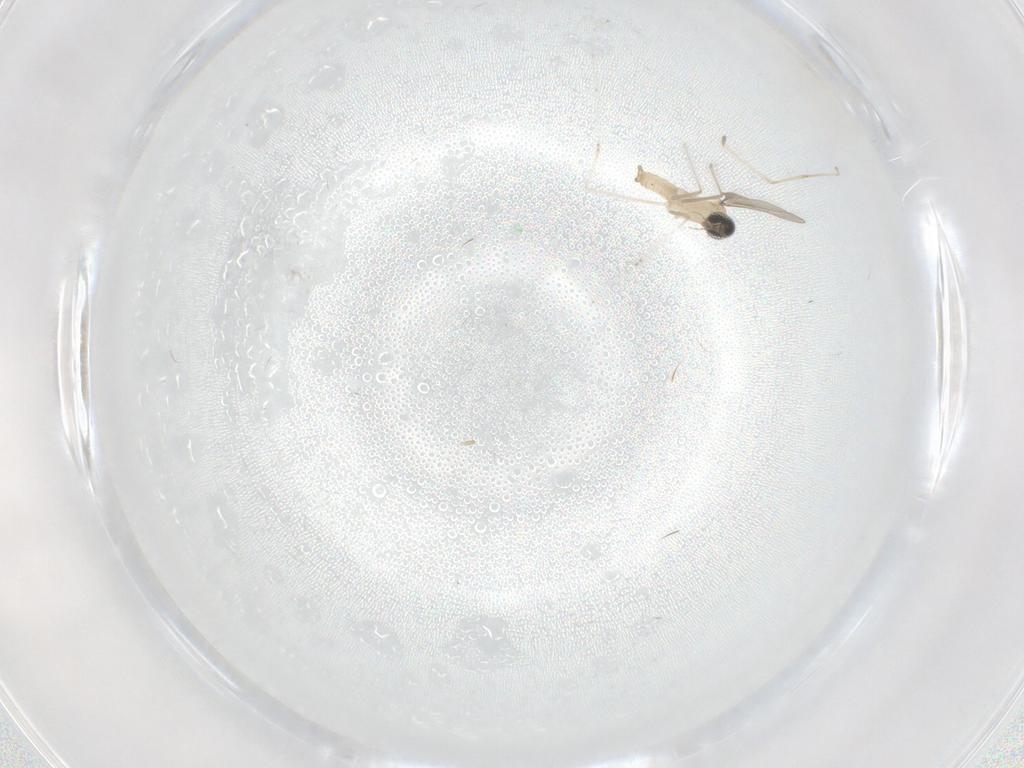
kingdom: Animalia
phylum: Arthropoda
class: Insecta
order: Diptera
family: Cecidomyiidae
